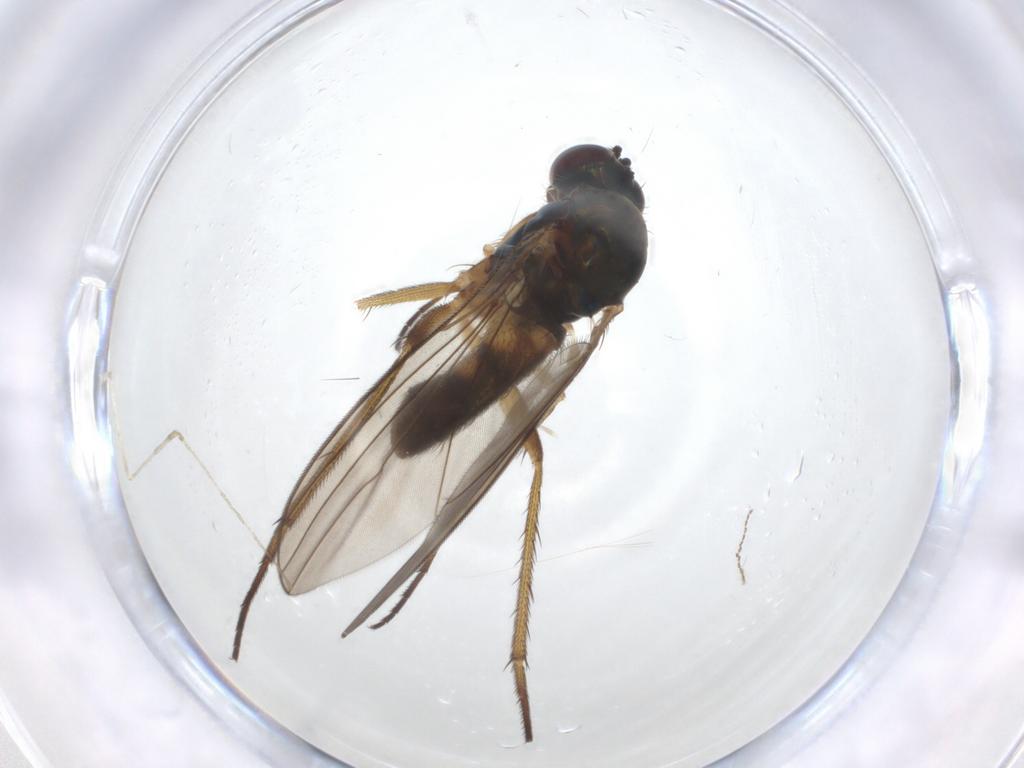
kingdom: Animalia
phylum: Arthropoda
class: Insecta
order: Diptera
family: Dolichopodidae
